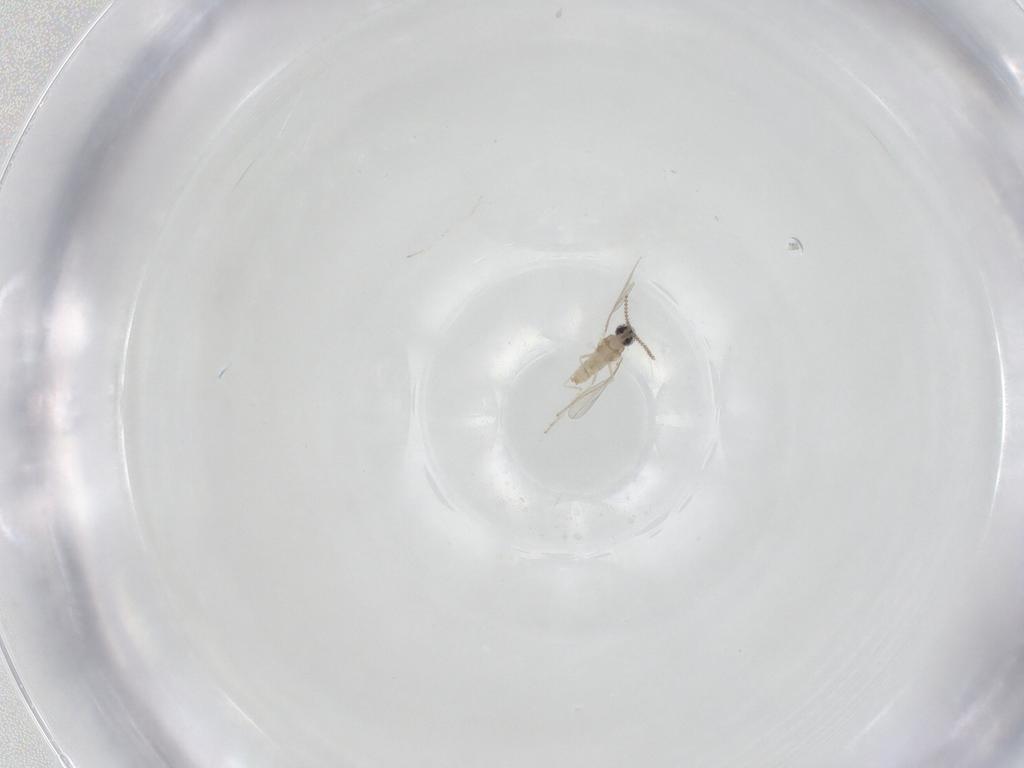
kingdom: Animalia
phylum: Arthropoda
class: Insecta
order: Diptera
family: Cecidomyiidae
